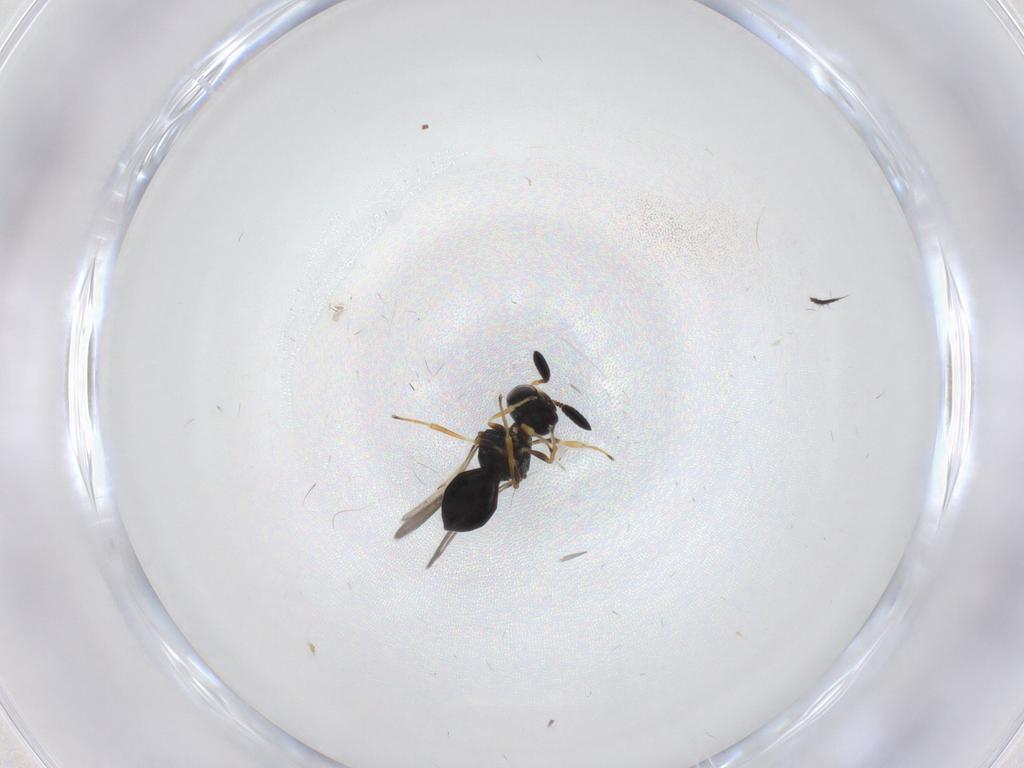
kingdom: Animalia
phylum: Arthropoda
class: Insecta
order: Hymenoptera
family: Scelionidae
